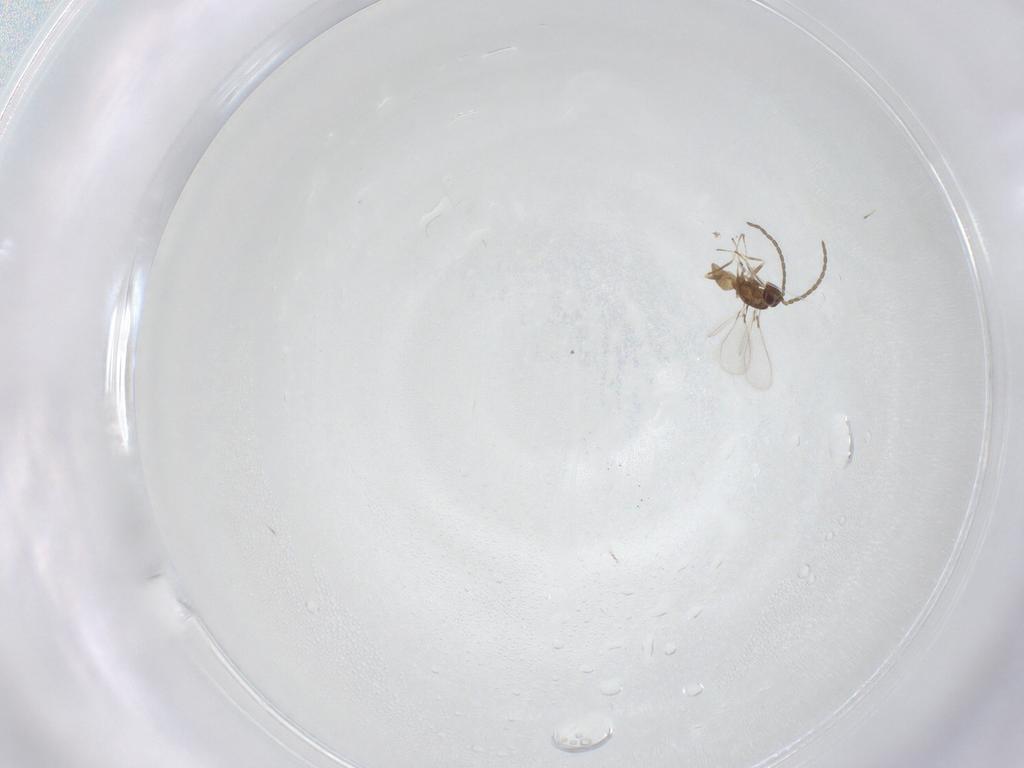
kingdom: Animalia
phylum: Arthropoda
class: Insecta
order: Hymenoptera
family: Mymaridae
